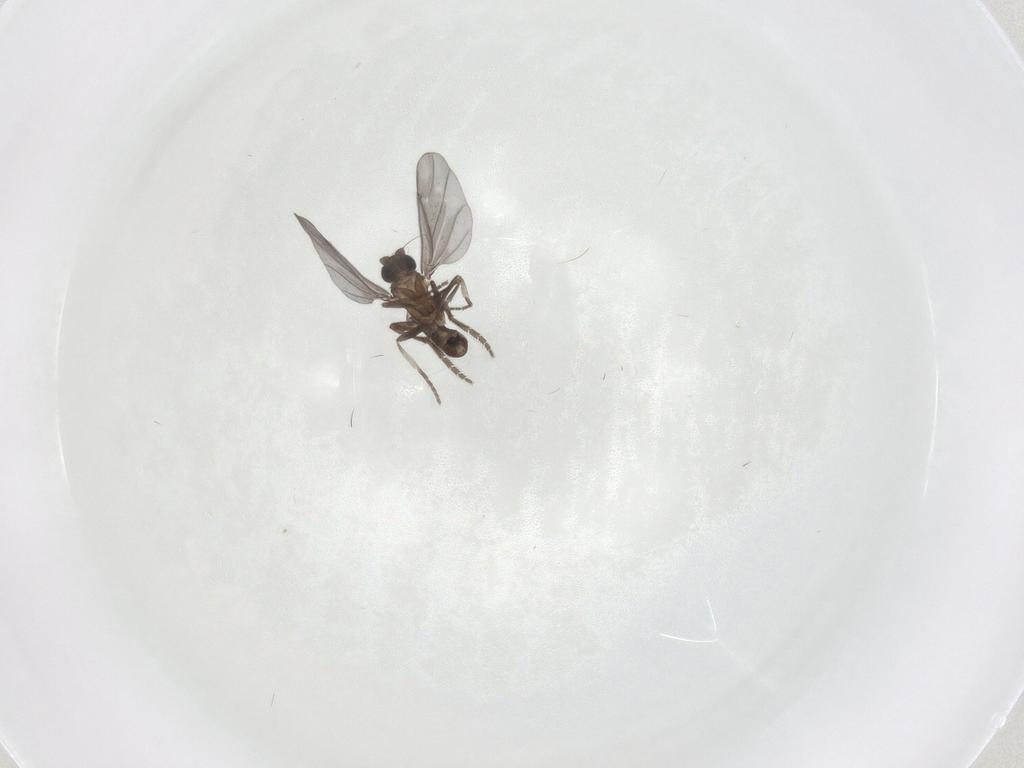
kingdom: Animalia
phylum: Arthropoda
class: Insecta
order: Diptera
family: Phoridae
